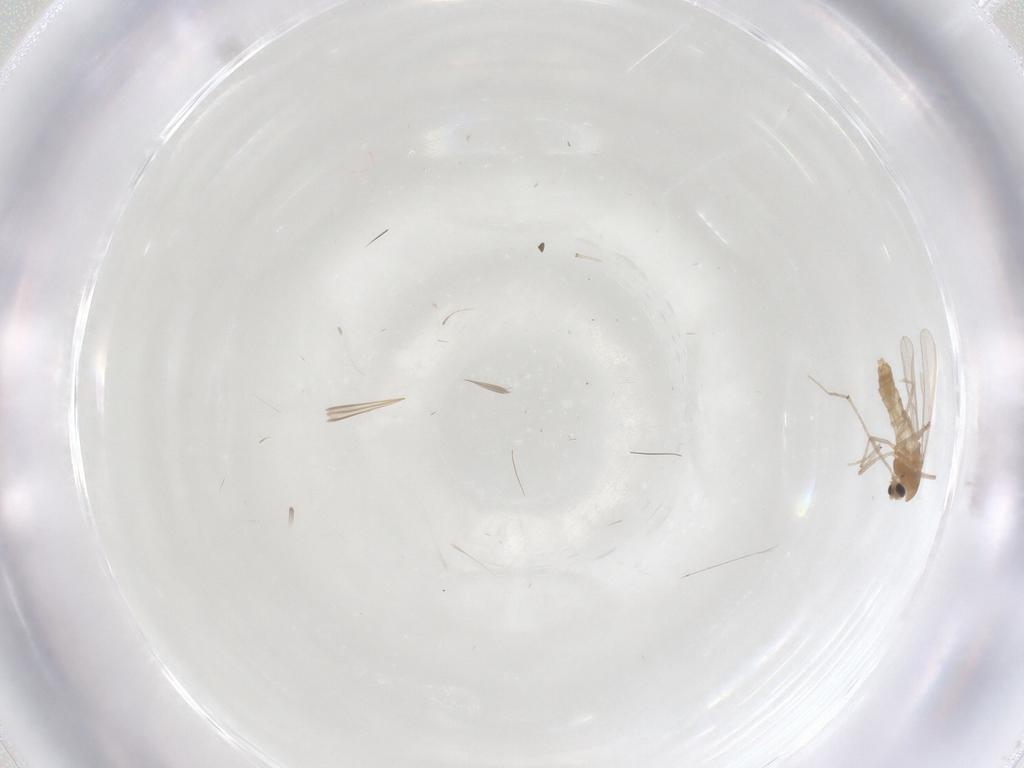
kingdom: Animalia
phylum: Arthropoda
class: Insecta
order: Diptera
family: Chironomidae
